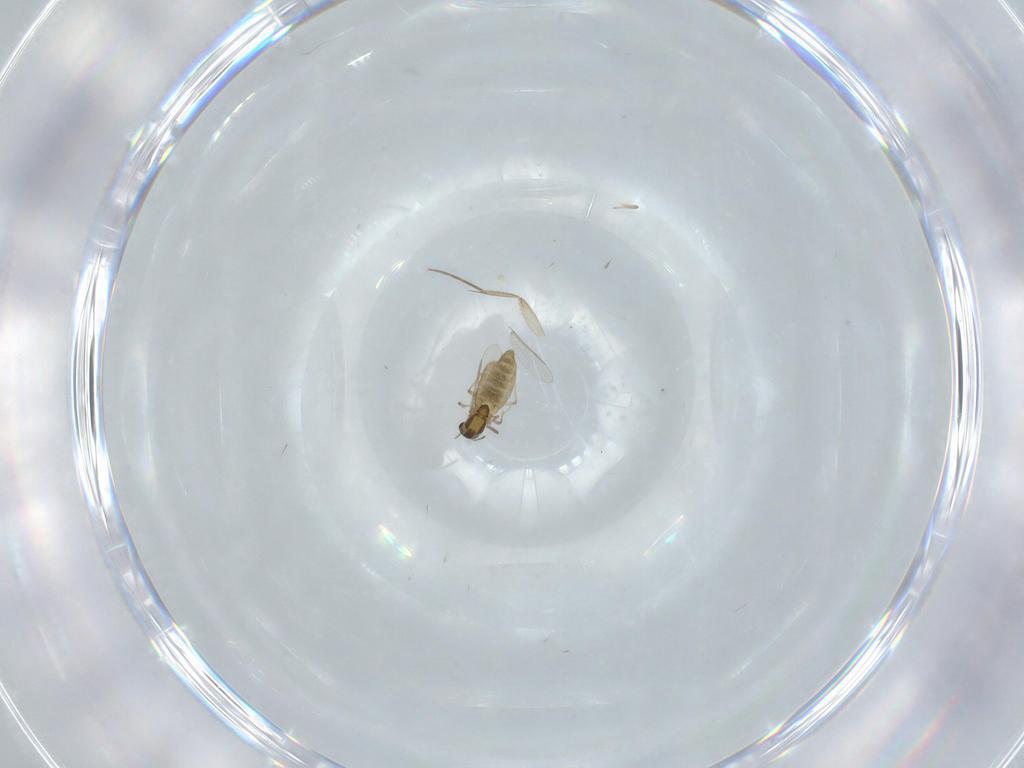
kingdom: Animalia
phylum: Arthropoda
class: Insecta
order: Diptera
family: Chironomidae
